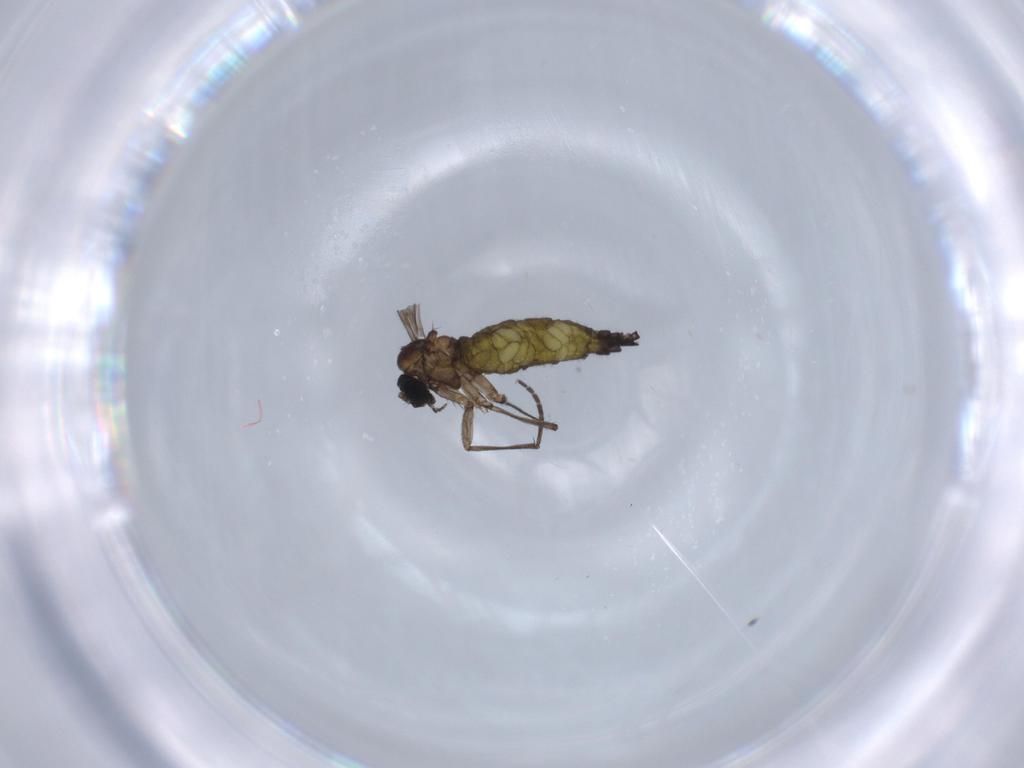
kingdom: Animalia
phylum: Arthropoda
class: Insecta
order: Diptera
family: Sciaridae
